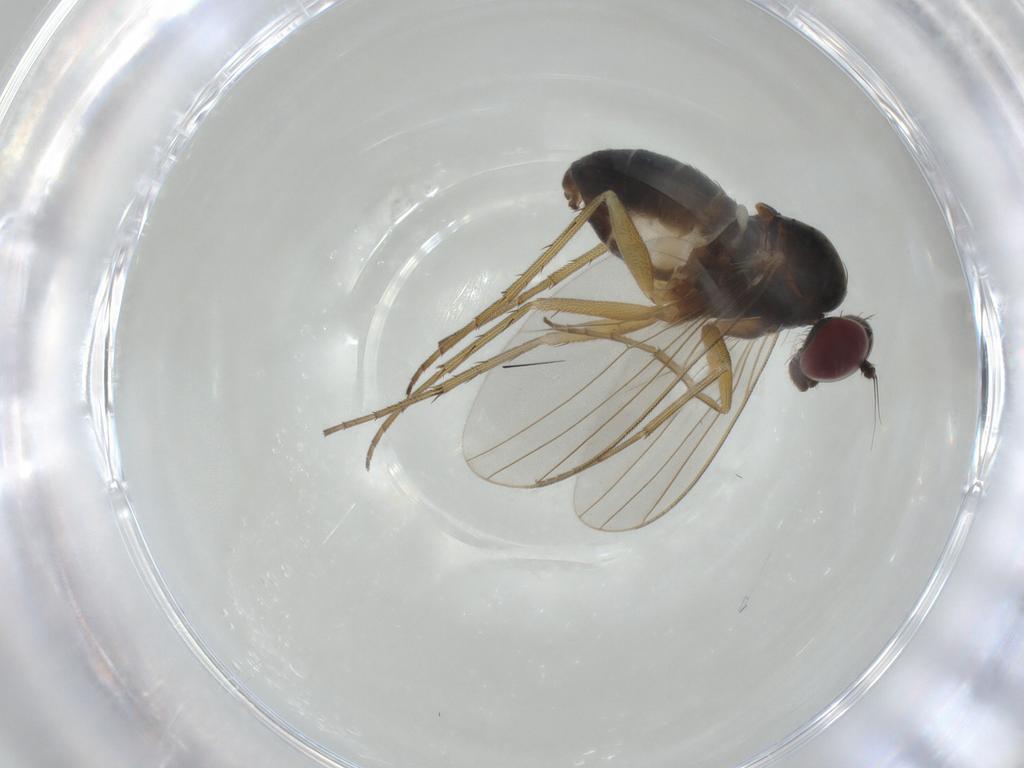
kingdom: Animalia
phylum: Arthropoda
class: Insecta
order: Diptera
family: Dolichopodidae
